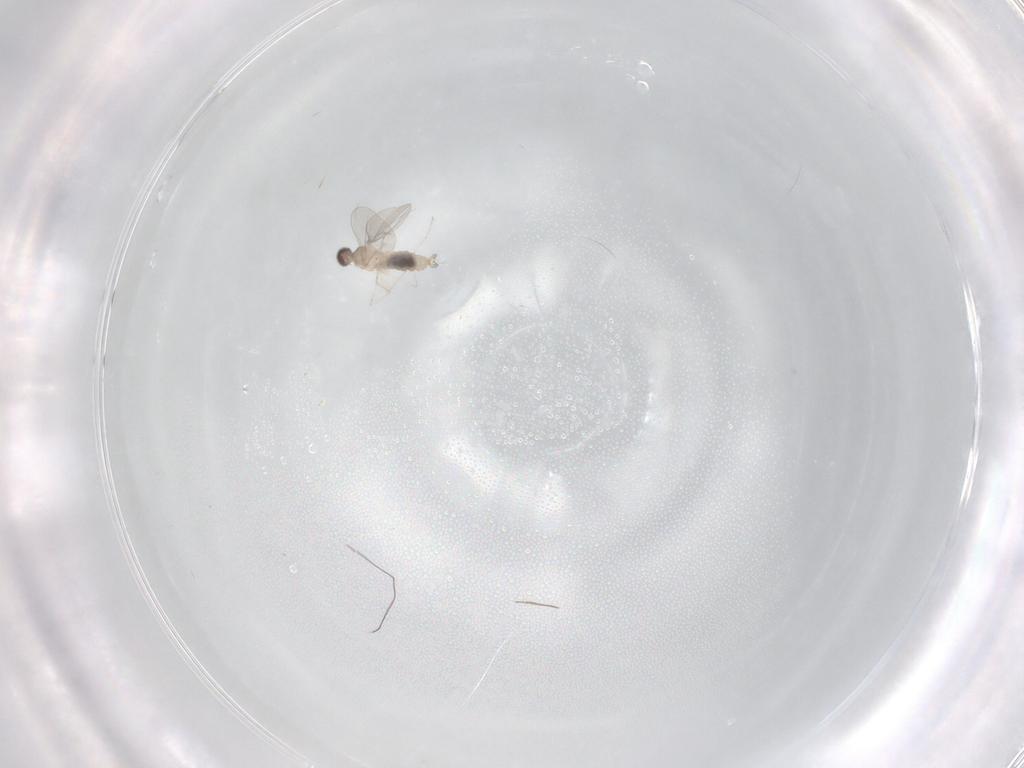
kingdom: Animalia
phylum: Arthropoda
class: Insecta
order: Diptera
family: Cecidomyiidae
